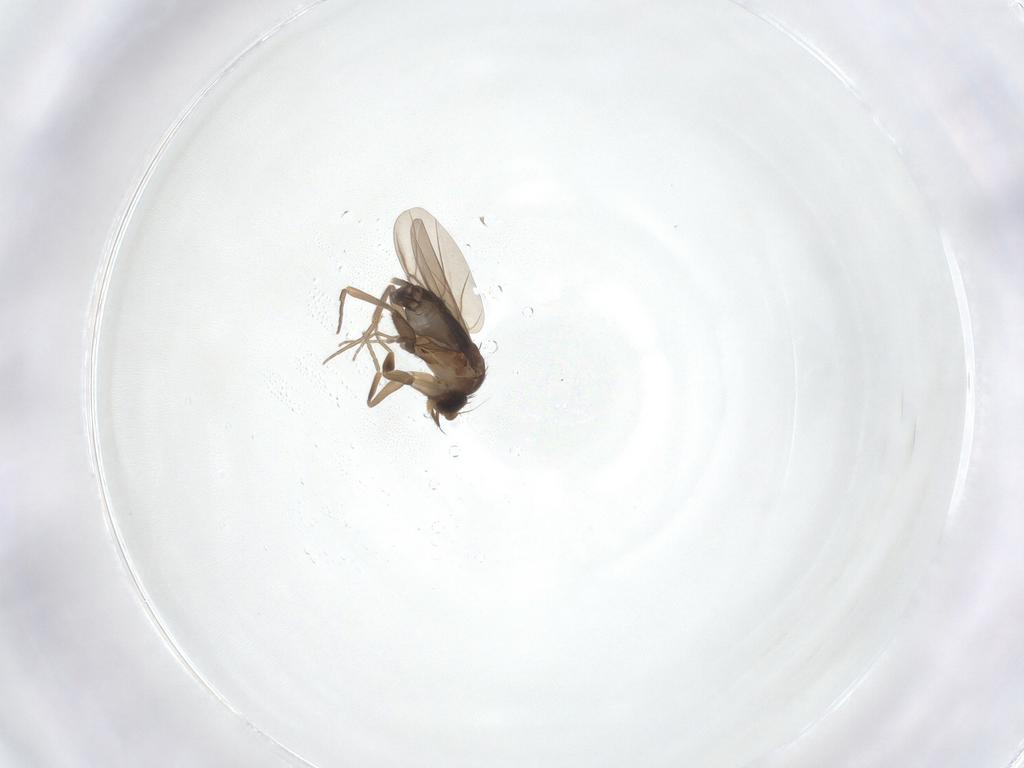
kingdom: Animalia
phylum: Arthropoda
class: Insecta
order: Diptera
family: Phoridae
